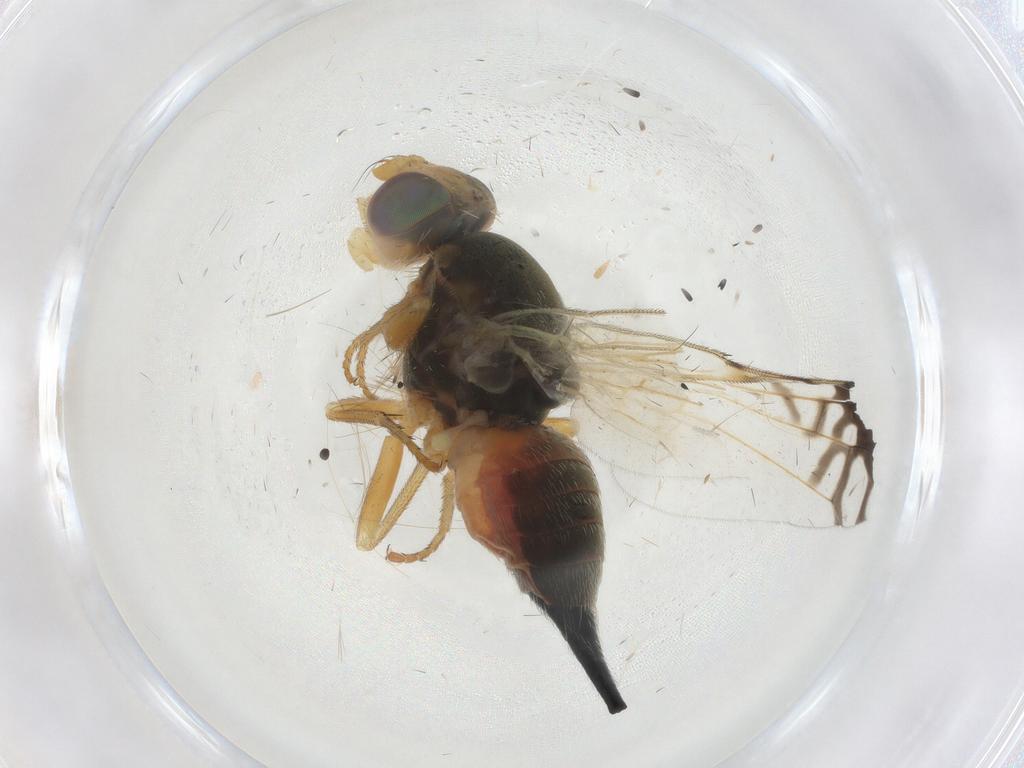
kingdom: Animalia
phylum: Arthropoda
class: Insecta
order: Diptera
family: Tephritidae
